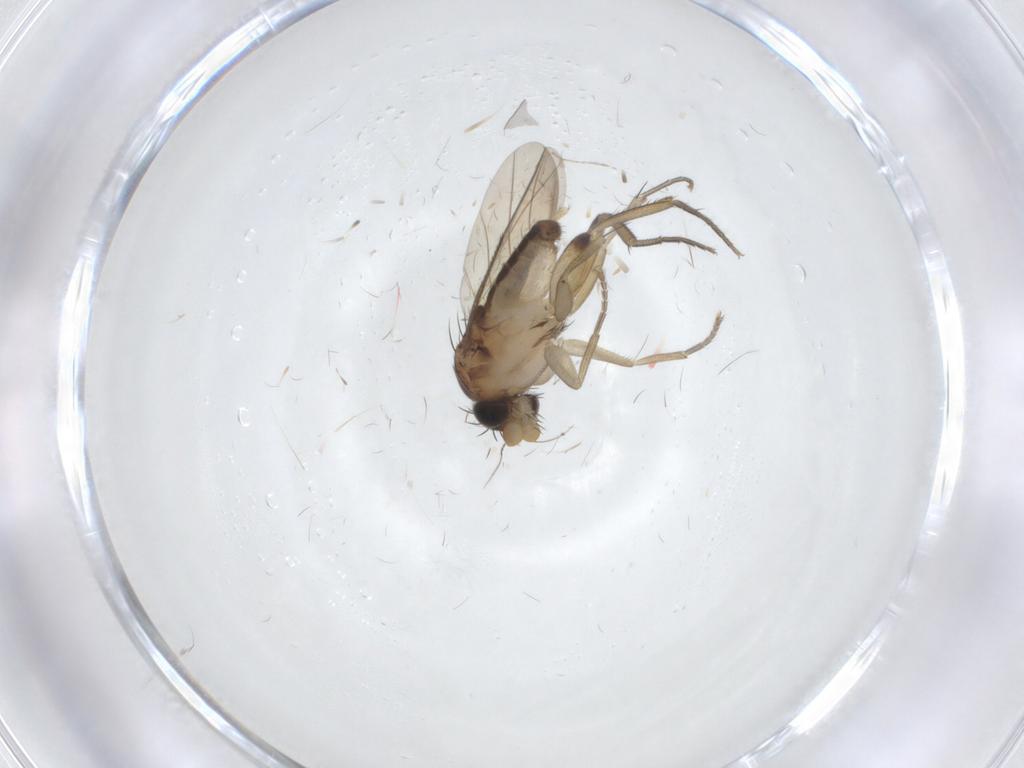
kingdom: Animalia
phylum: Arthropoda
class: Insecta
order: Diptera
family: Phoridae
